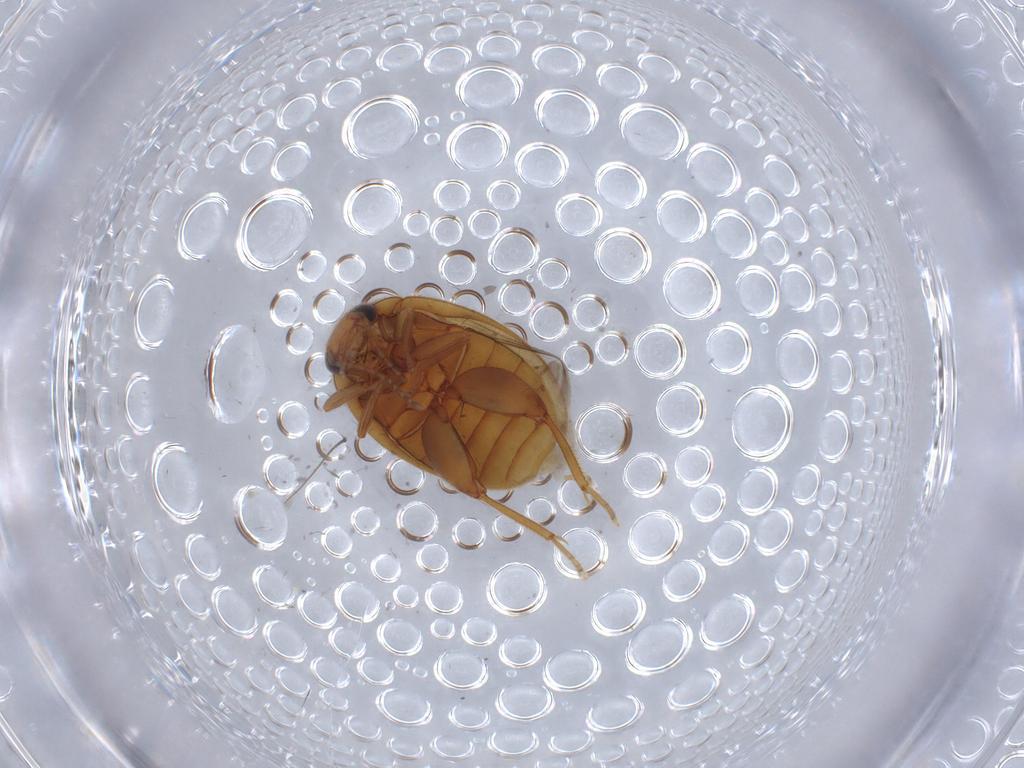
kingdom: Animalia
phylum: Arthropoda
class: Insecta
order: Coleoptera
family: Scirtidae
